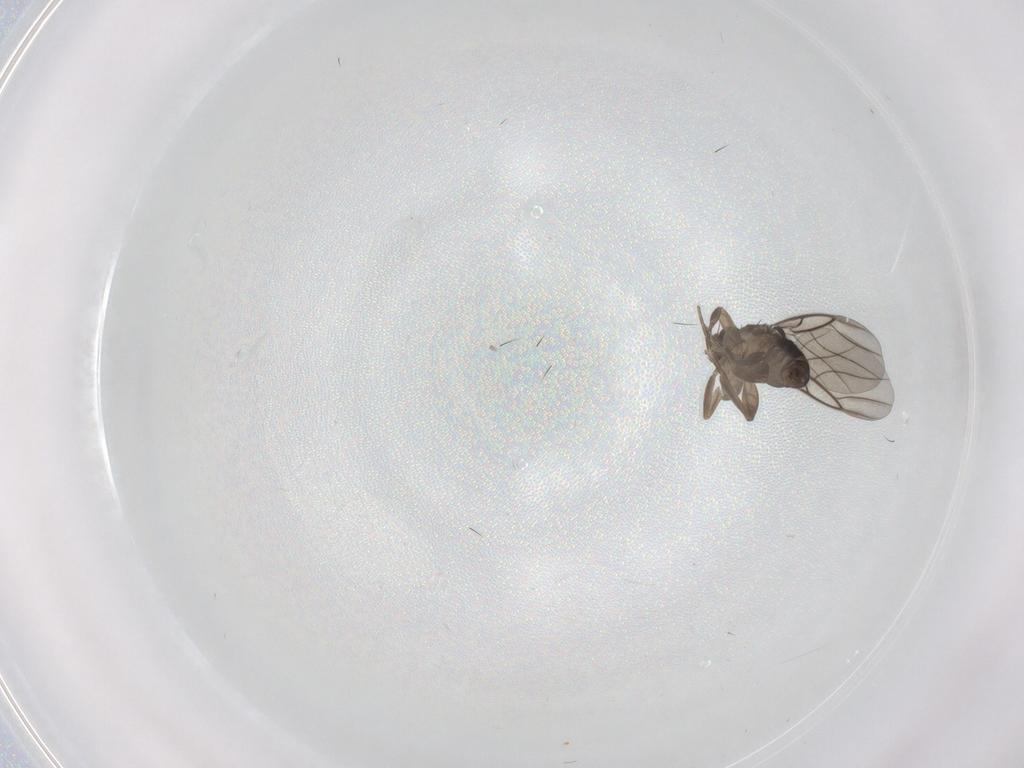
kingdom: Animalia
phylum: Arthropoda
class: Insecta
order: Diptera
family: Phoridae
